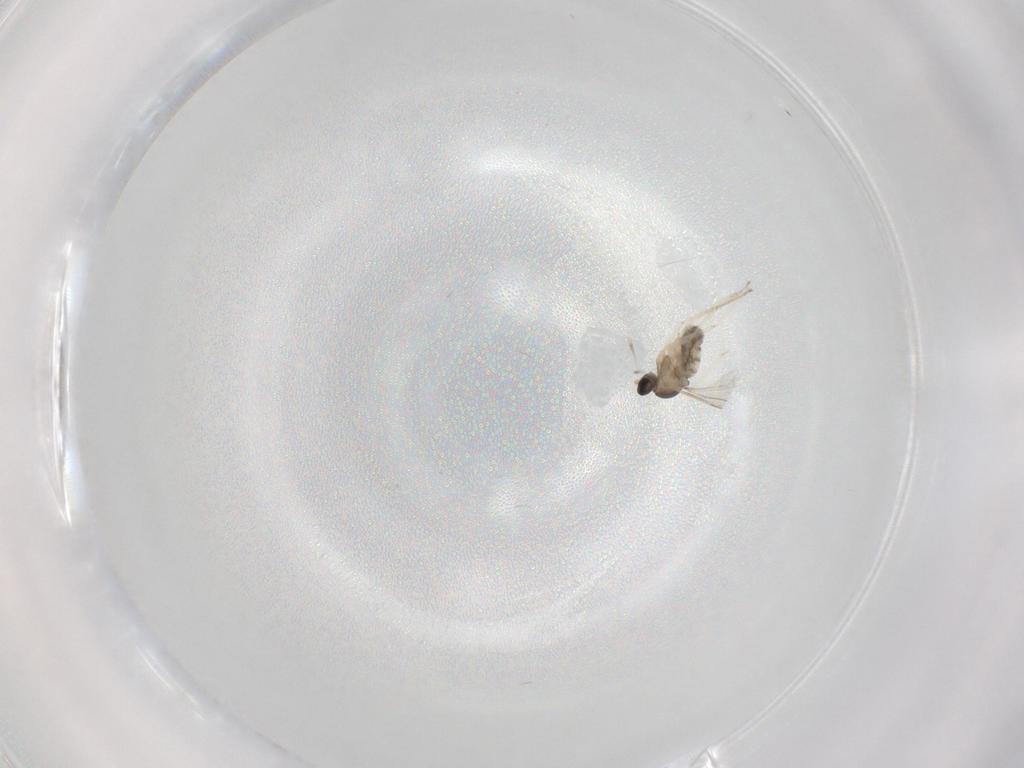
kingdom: Animalia
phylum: Arthropoda
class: Insecta
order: Diptera
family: Cecidomyiidae
